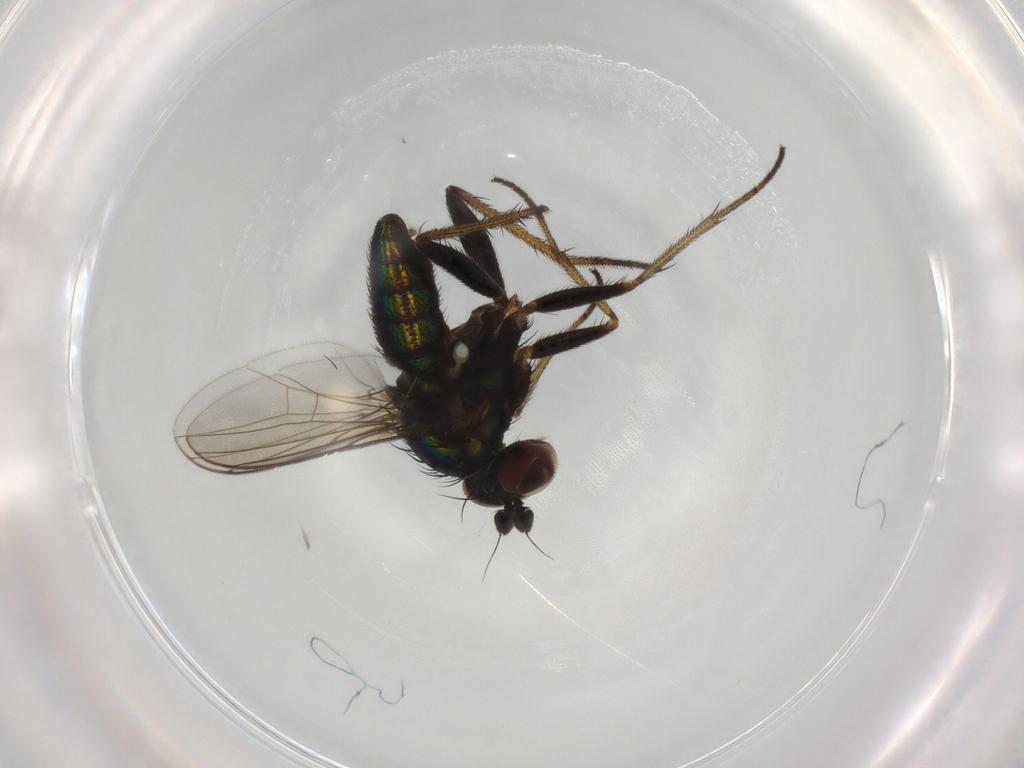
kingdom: Animalia
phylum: Arthropoda
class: Insecta
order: Diptera
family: Dolichopodidae
